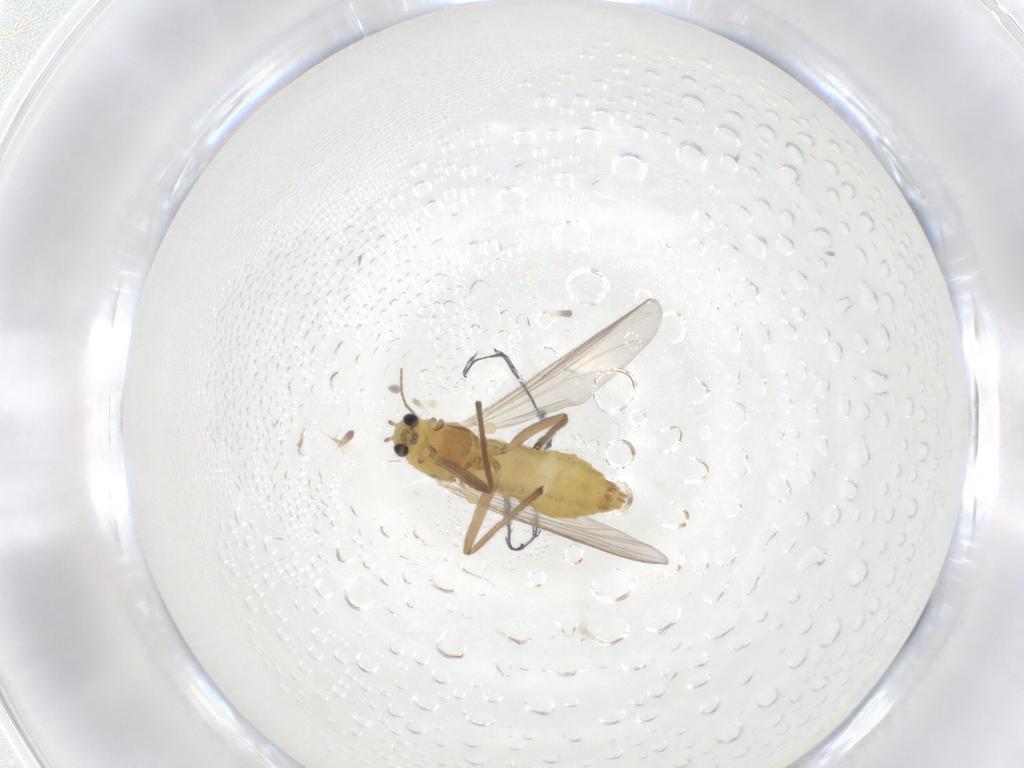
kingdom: Animalia
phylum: Arthropoda
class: Insecta
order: Diptera
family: Chironomidae
